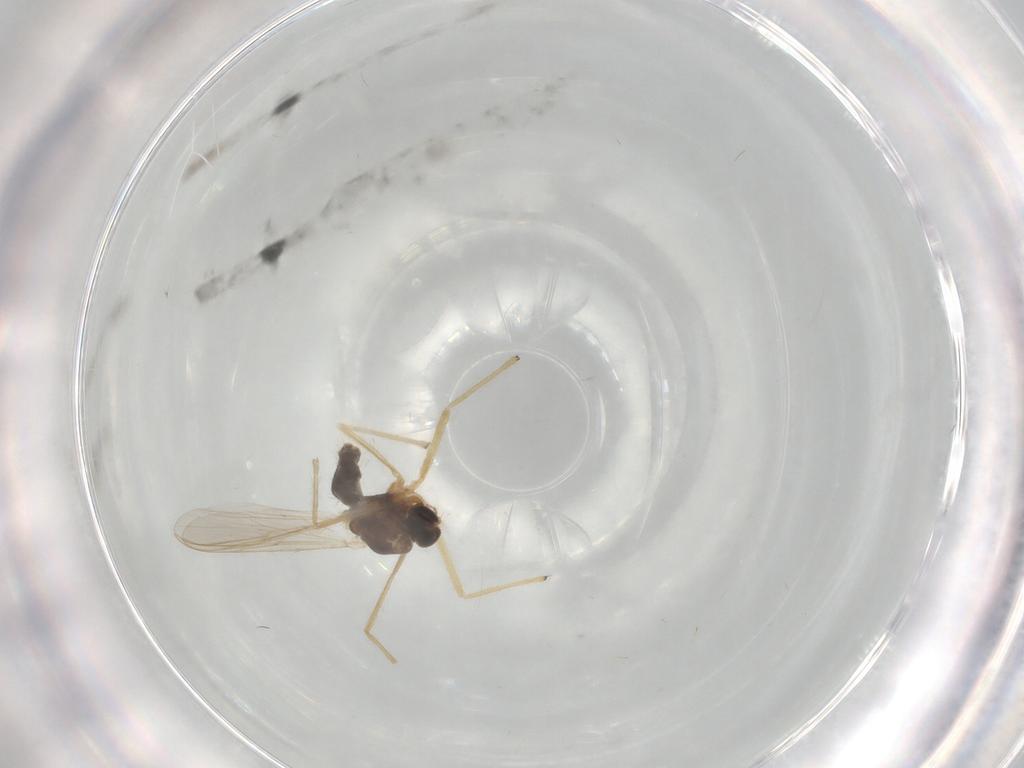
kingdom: Animalia
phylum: Arthropoda
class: Insecta
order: Diptera
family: Chironomidae
